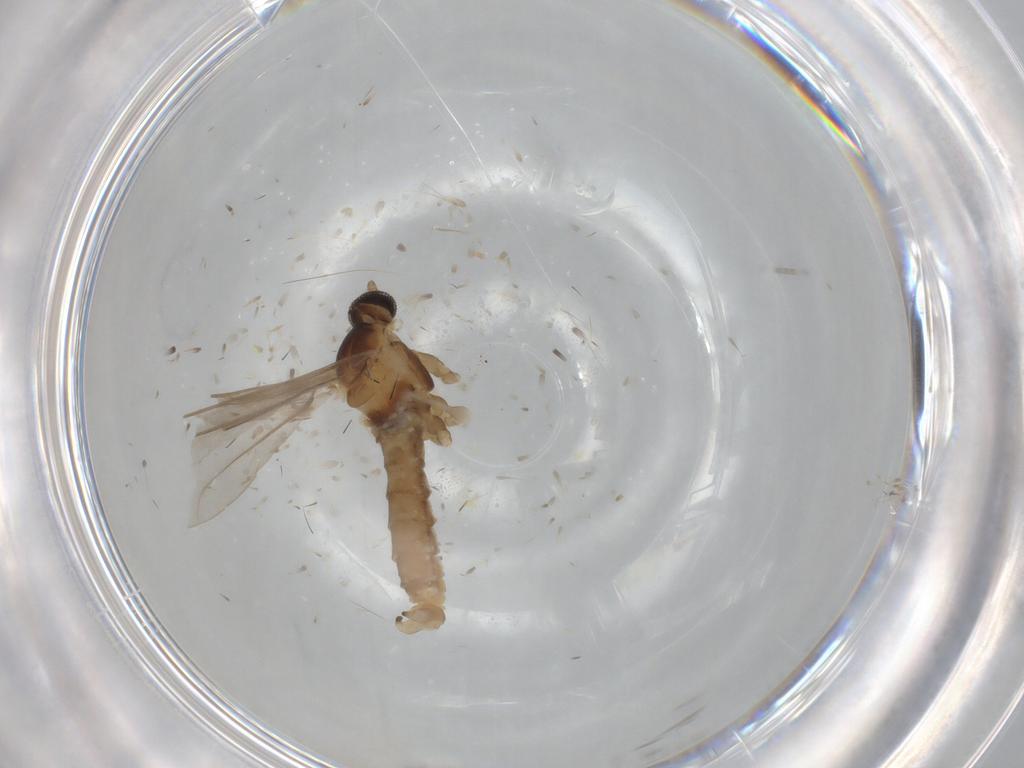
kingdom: Animalia
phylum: Arthropoda
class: Insecta
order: Diptera
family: Cecidomyiidae
